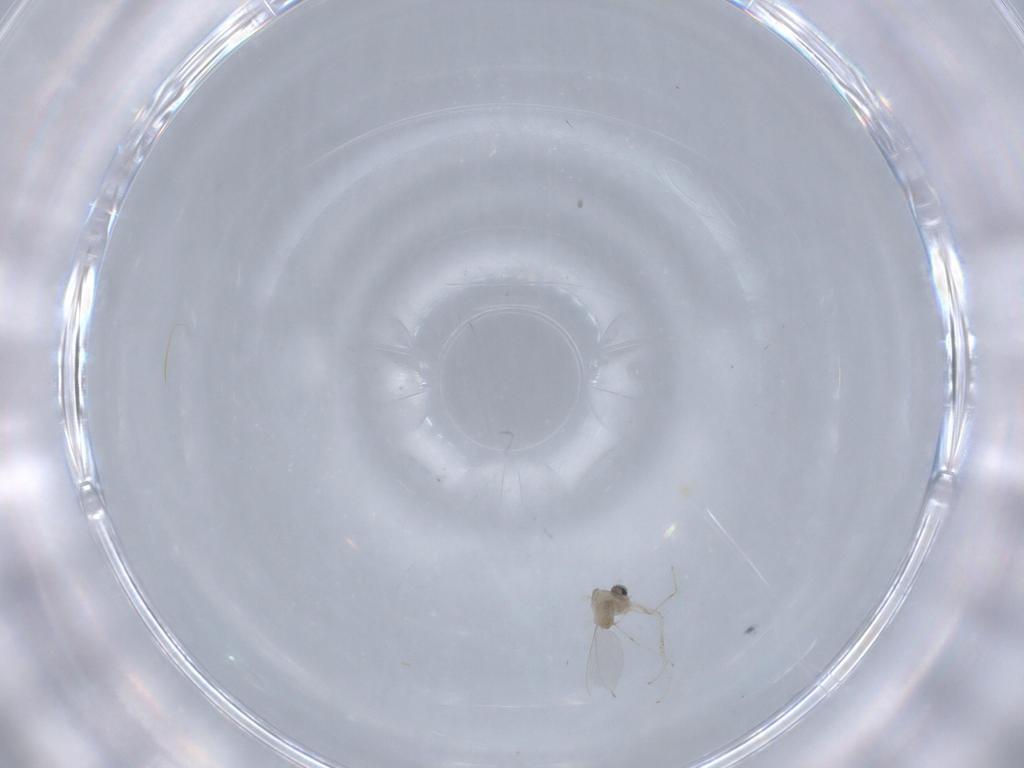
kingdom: Animalia
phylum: Arthropoda
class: Insecta
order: Diptera
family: Cecidomyiidae
